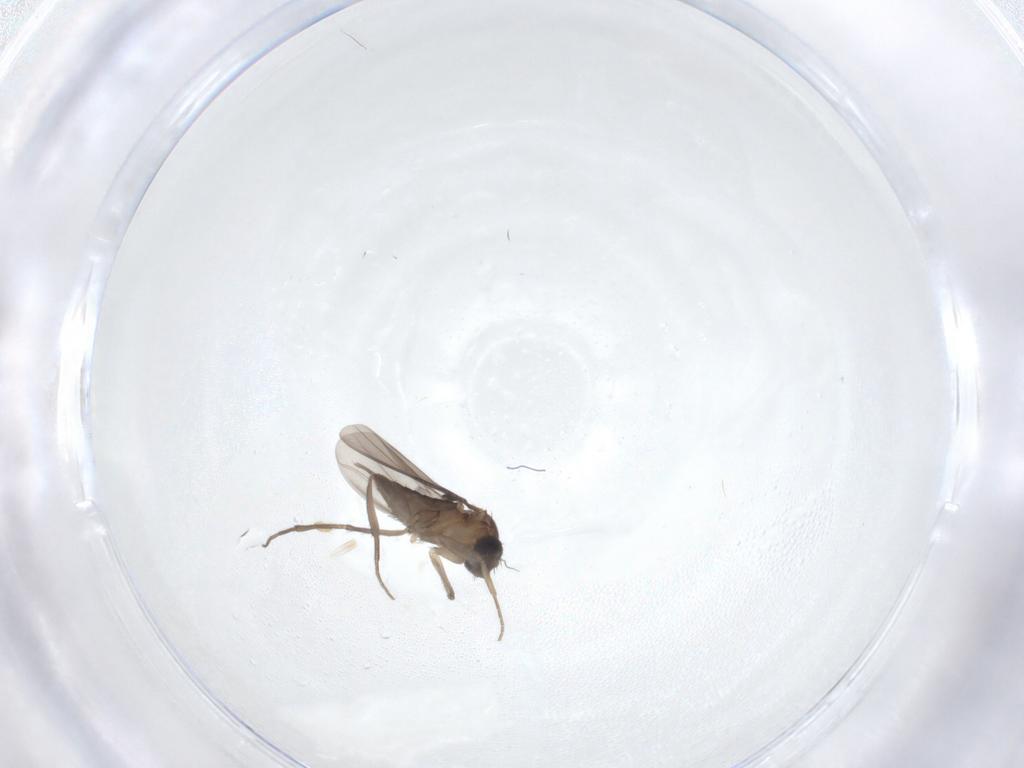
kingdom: Animalia
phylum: Arthropoda
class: Insecta
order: Diptera
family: Phoridae
